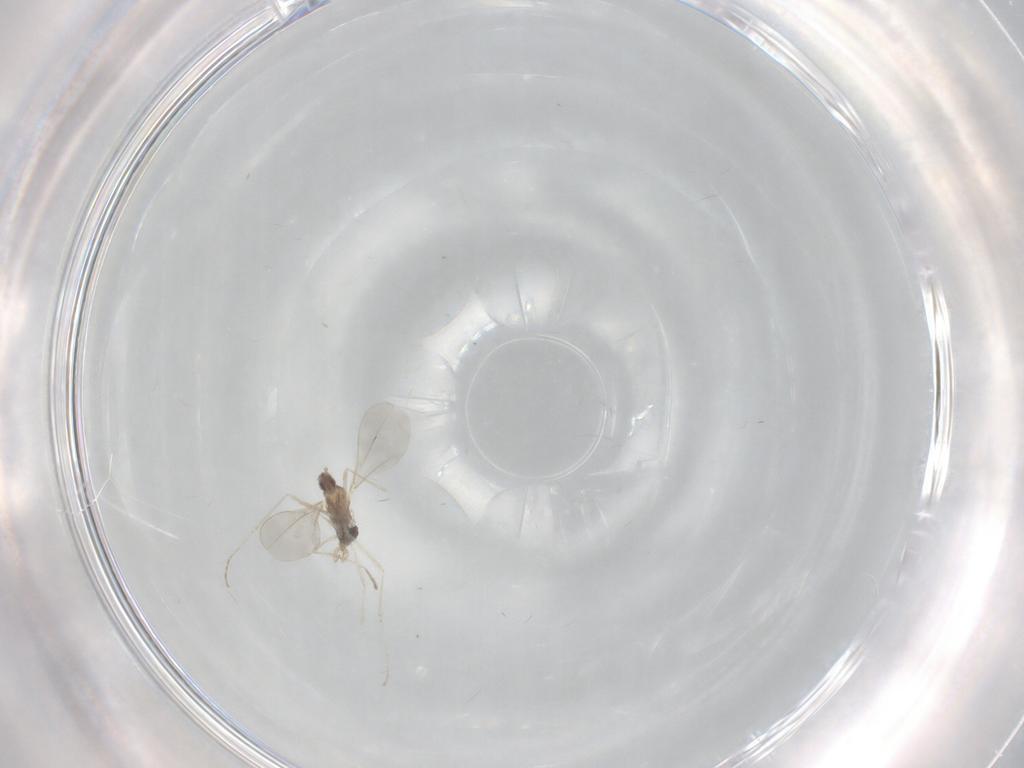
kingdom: Animalia
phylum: Arthropoda
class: Insecta
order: Diptera
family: Cecidomyiidae
